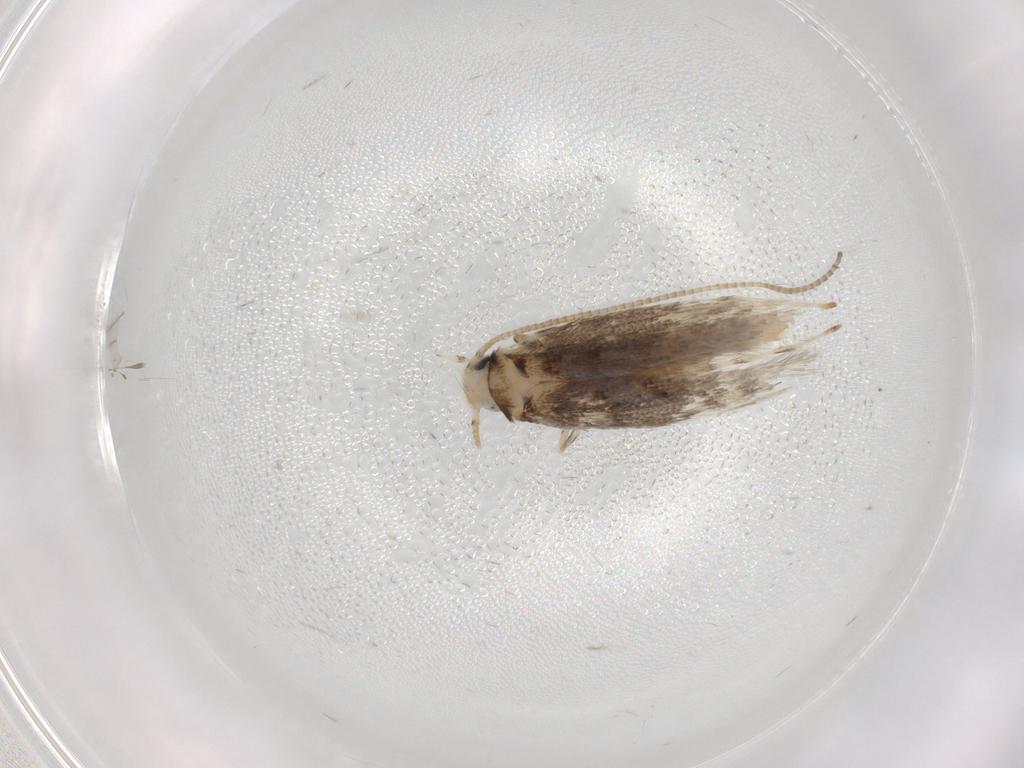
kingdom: Animalia
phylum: Arthropoda
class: Insecta
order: Lepidoptera
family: Gracillariidae
